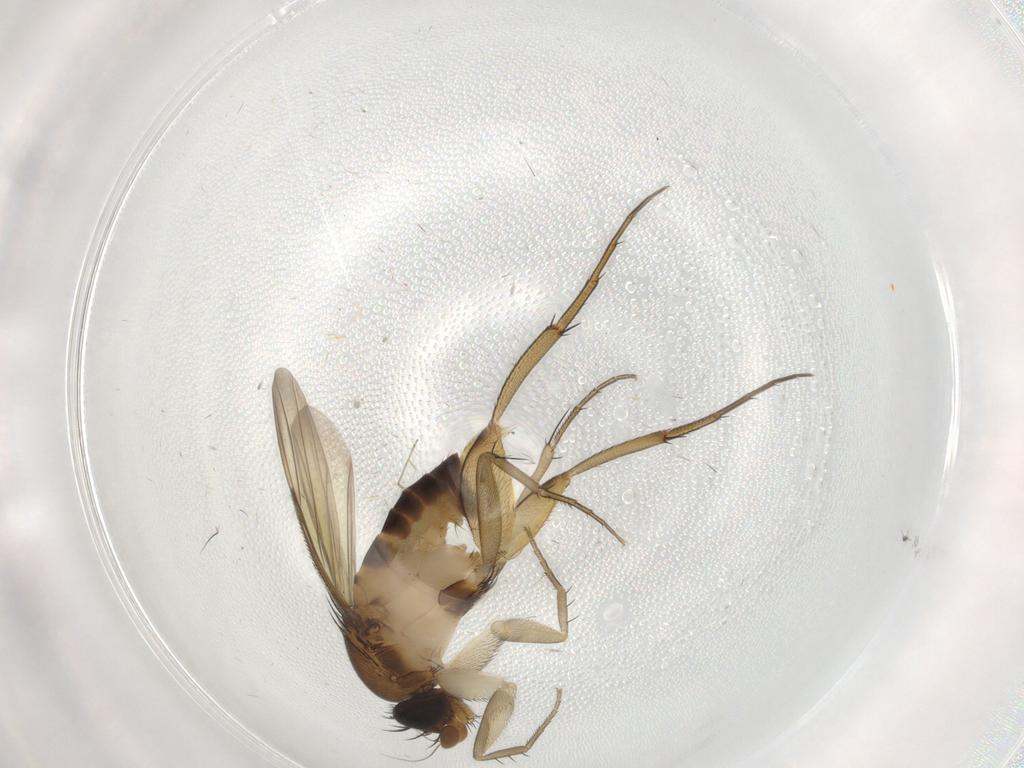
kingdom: Animalia
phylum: Arthropoda
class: Insecta
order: Diptera
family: Phoridae
